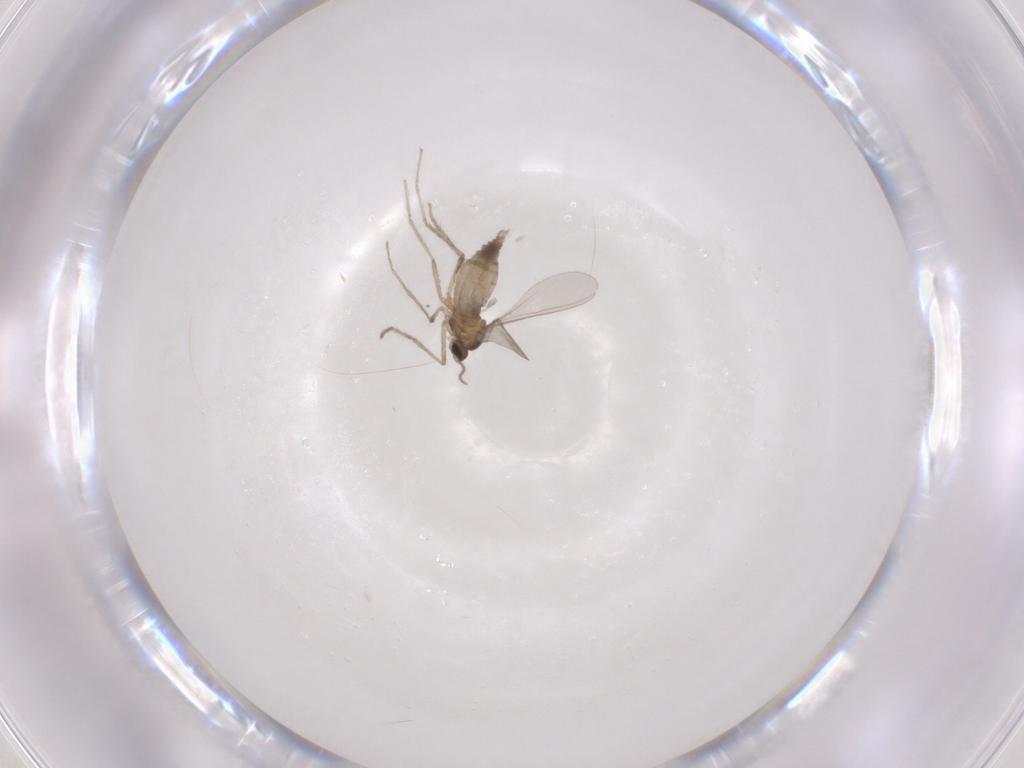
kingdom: Animalia
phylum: Arthropoda
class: Insecta
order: Diptera
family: Cecidomyiidae
